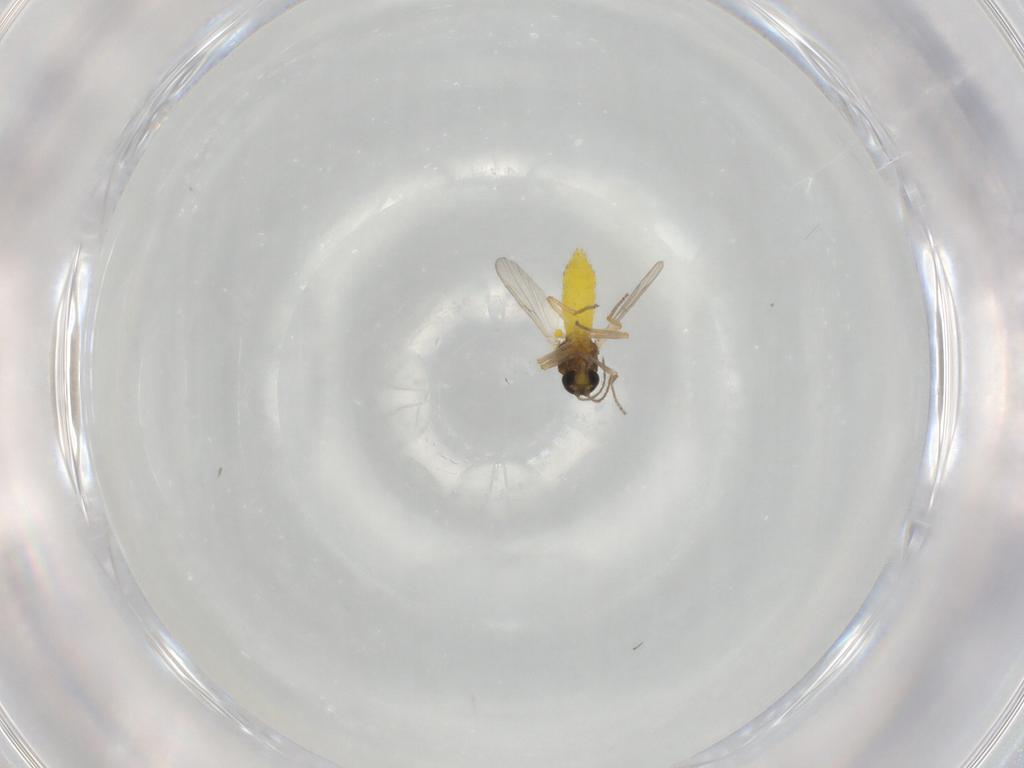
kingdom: Animalia
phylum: Arthropoda
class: Insecta
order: Diptera
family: Ceratopogonidae
